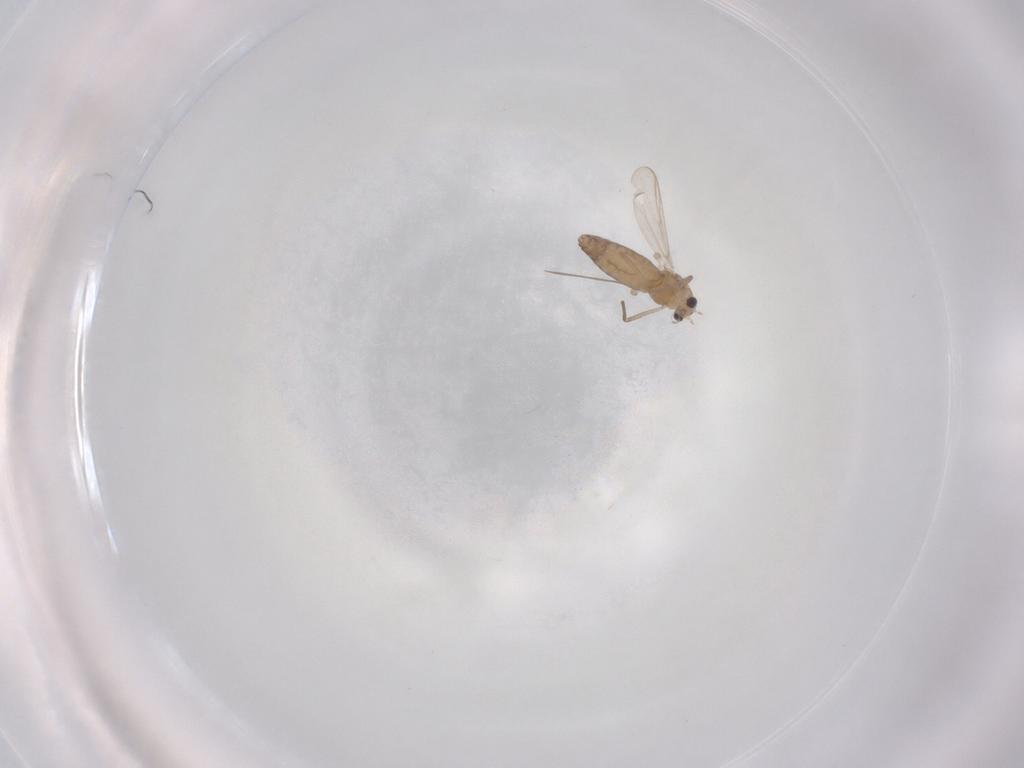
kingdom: Animalia
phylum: Arthropoda
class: Insecta
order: Diptera
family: Chironomidae
